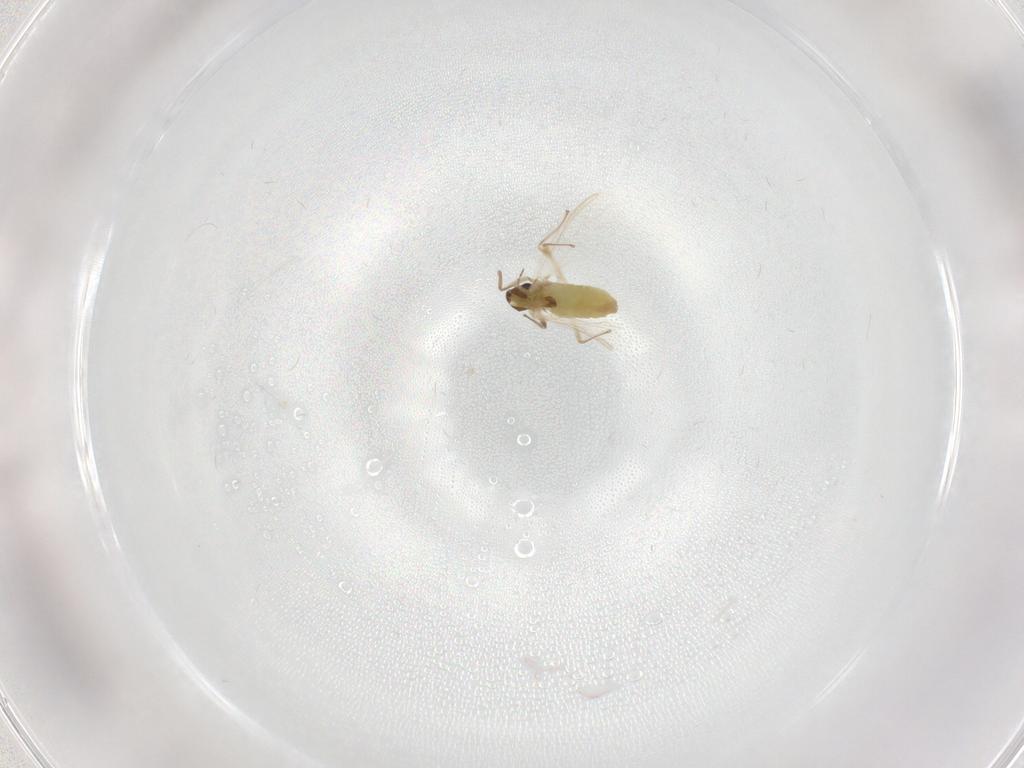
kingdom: Animalia
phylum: Arthropoda
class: Insecta
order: Diptera
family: Chironomidae
